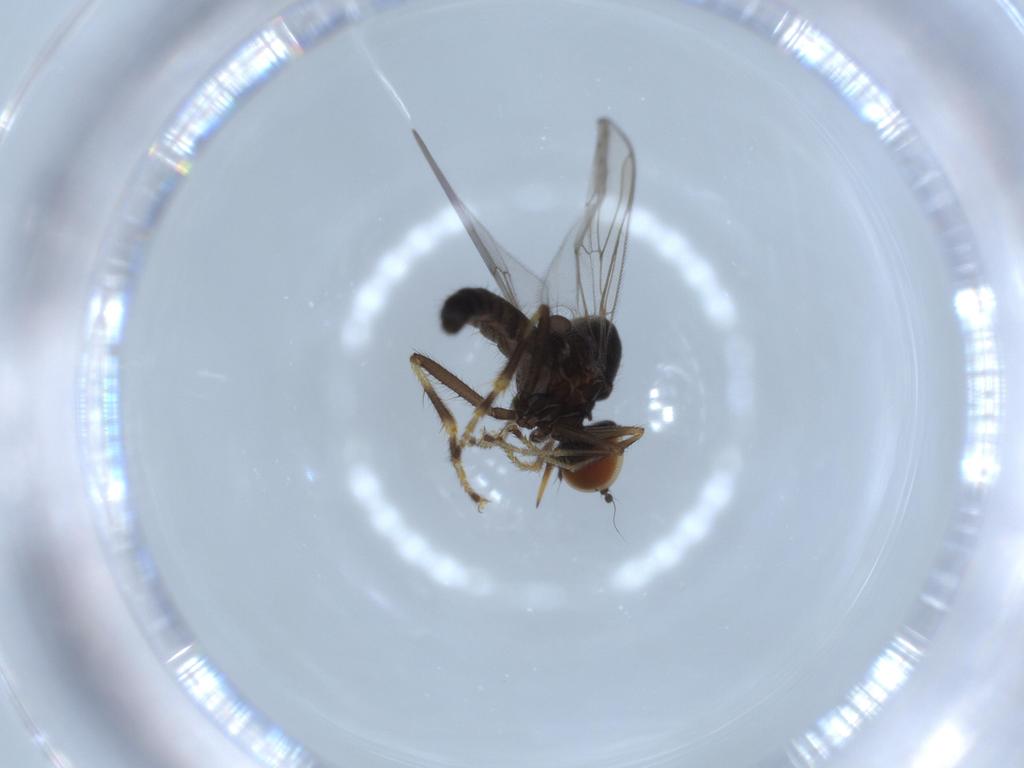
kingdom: Animalia
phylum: Arthropoda
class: Insecta
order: Diptera
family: Hybotidae
